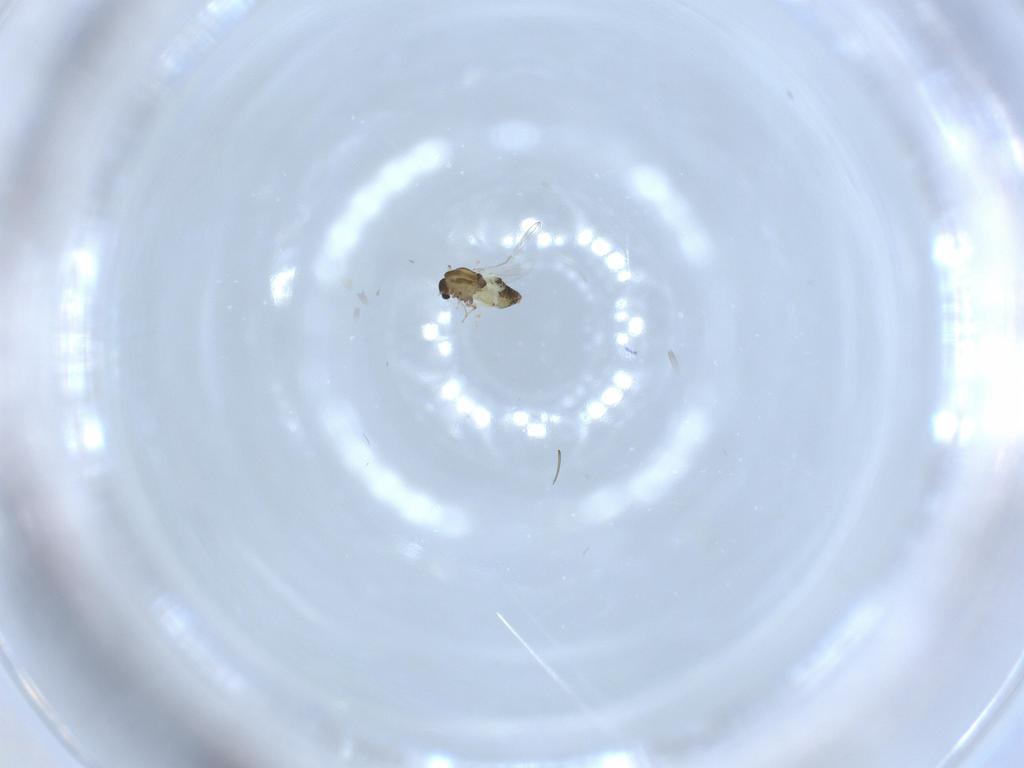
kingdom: Animalia
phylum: Arthropoda
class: Insecta
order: Diptera
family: Chironomidae
